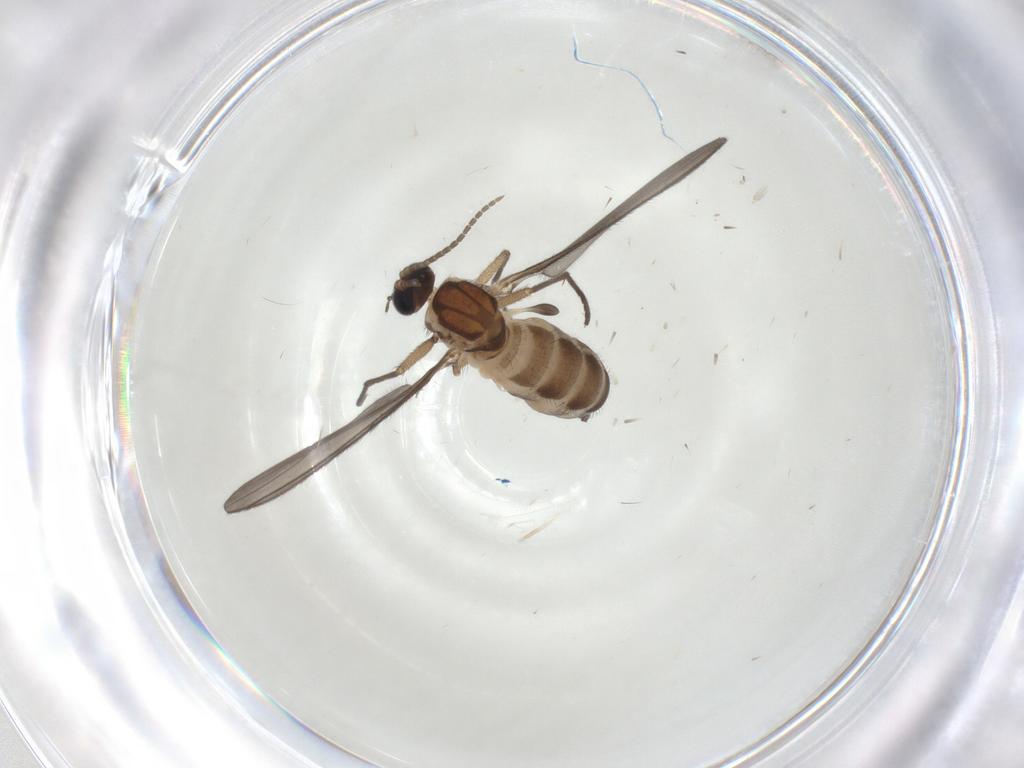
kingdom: Animalia
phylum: Arthropoda
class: Insecta
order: Diptera
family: Sciaridae
